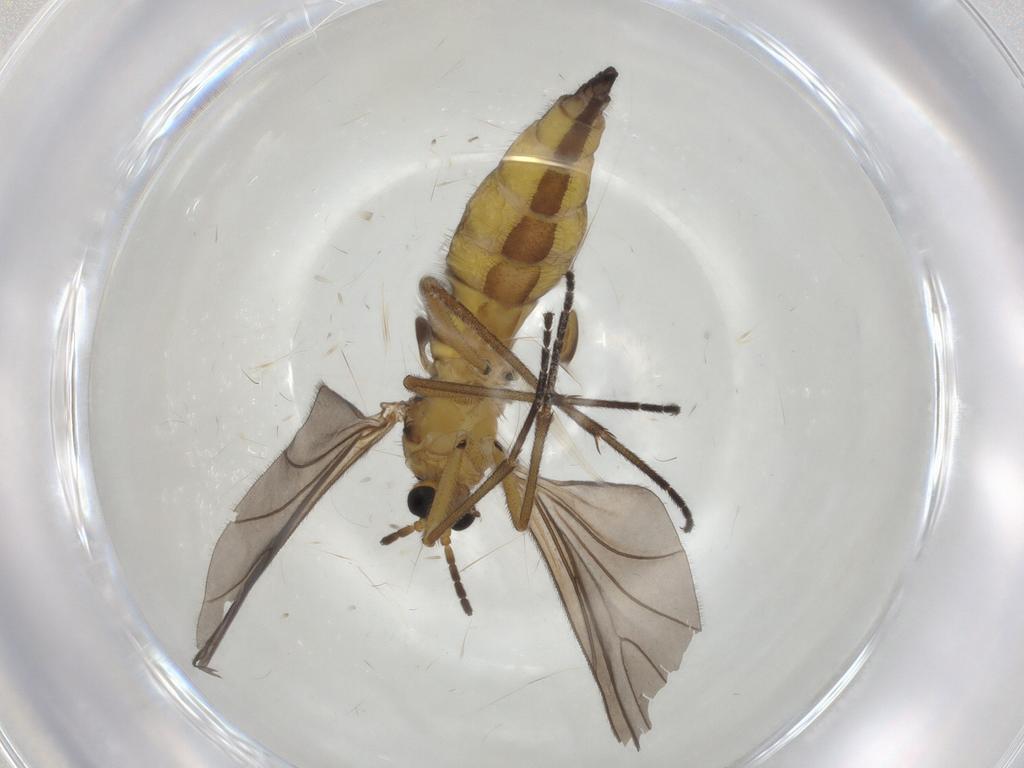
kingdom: Animalia
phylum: Arthropoda
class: Insecta
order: Diptera
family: Sciaridae
